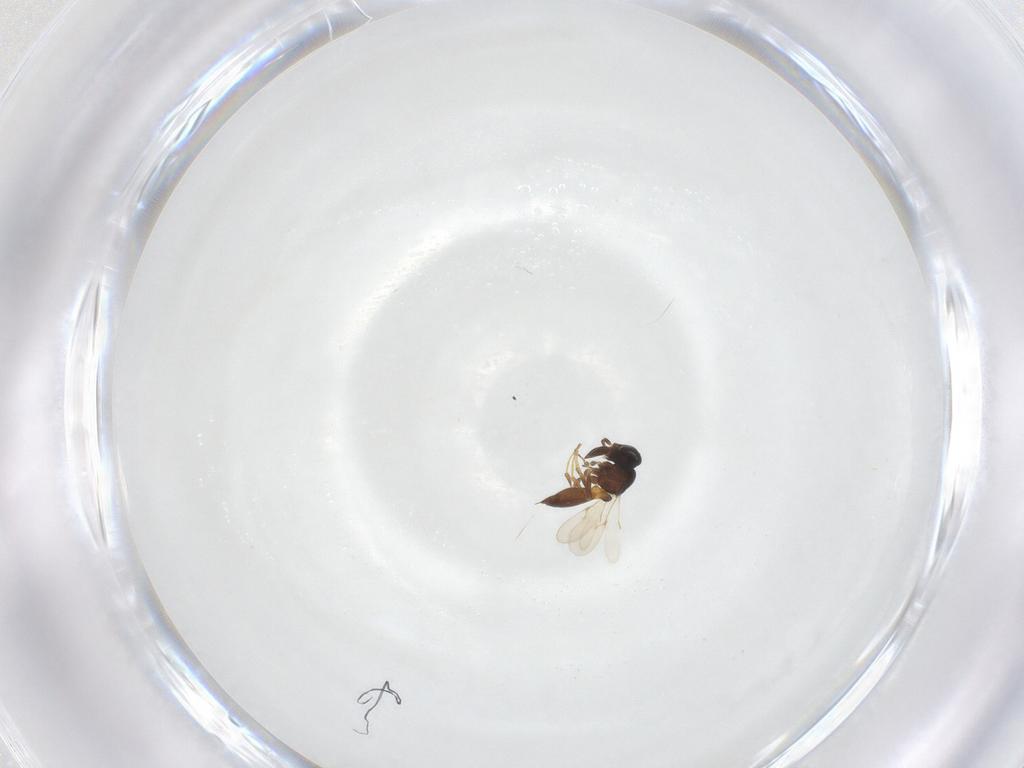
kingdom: Animalia
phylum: Arthropoda
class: Insecta
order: Hymenoptera
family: Scelionidae
